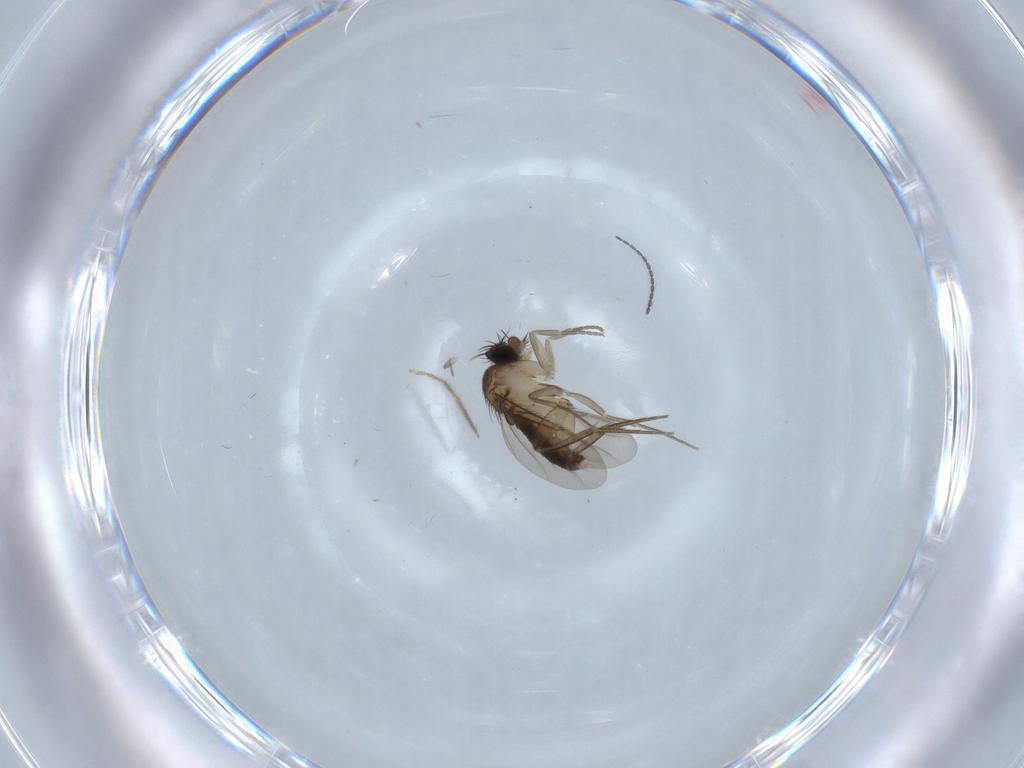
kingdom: Animalia
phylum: Arthropoda
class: Insecta
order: Diptera
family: Phoridae
